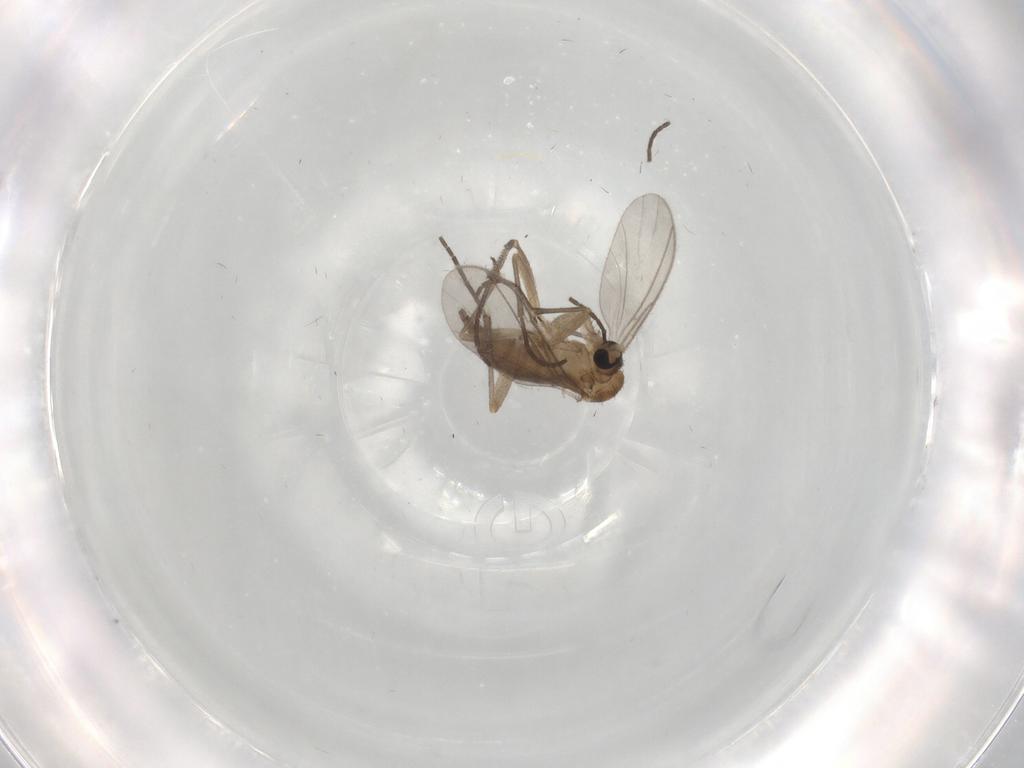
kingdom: Animalia
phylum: Arthropoda
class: Insecta
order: Diptera
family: Sciaridae
